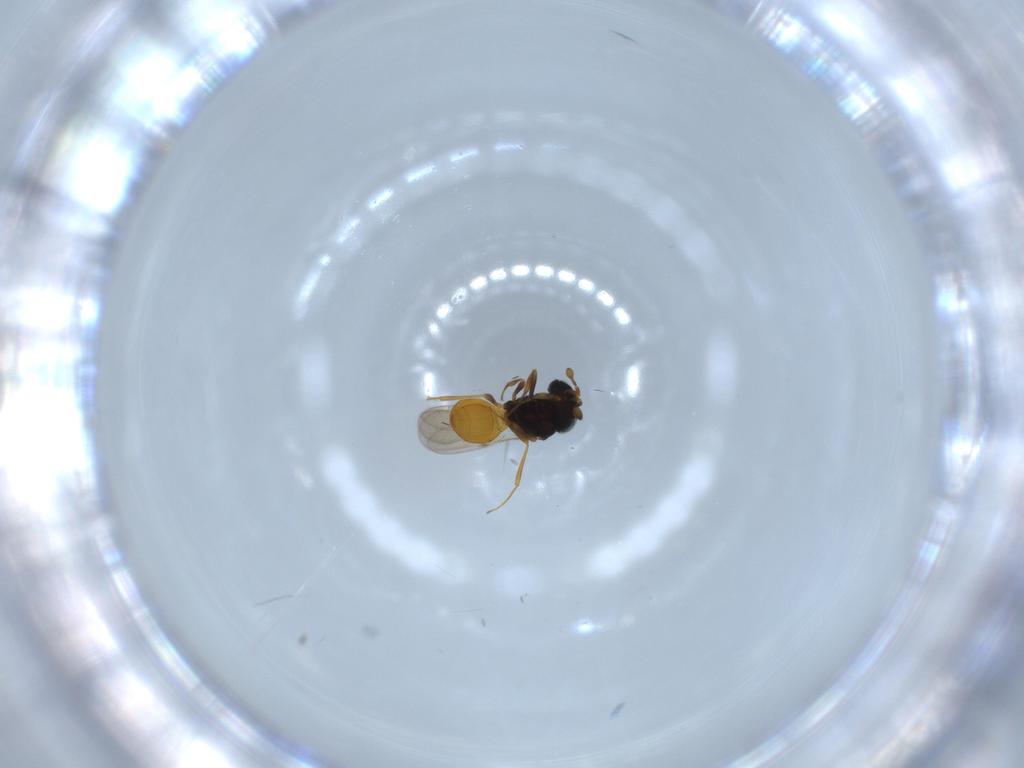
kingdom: Animalia
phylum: Arthropoda
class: Insecta
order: Hymenoptera
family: Scelionidae
